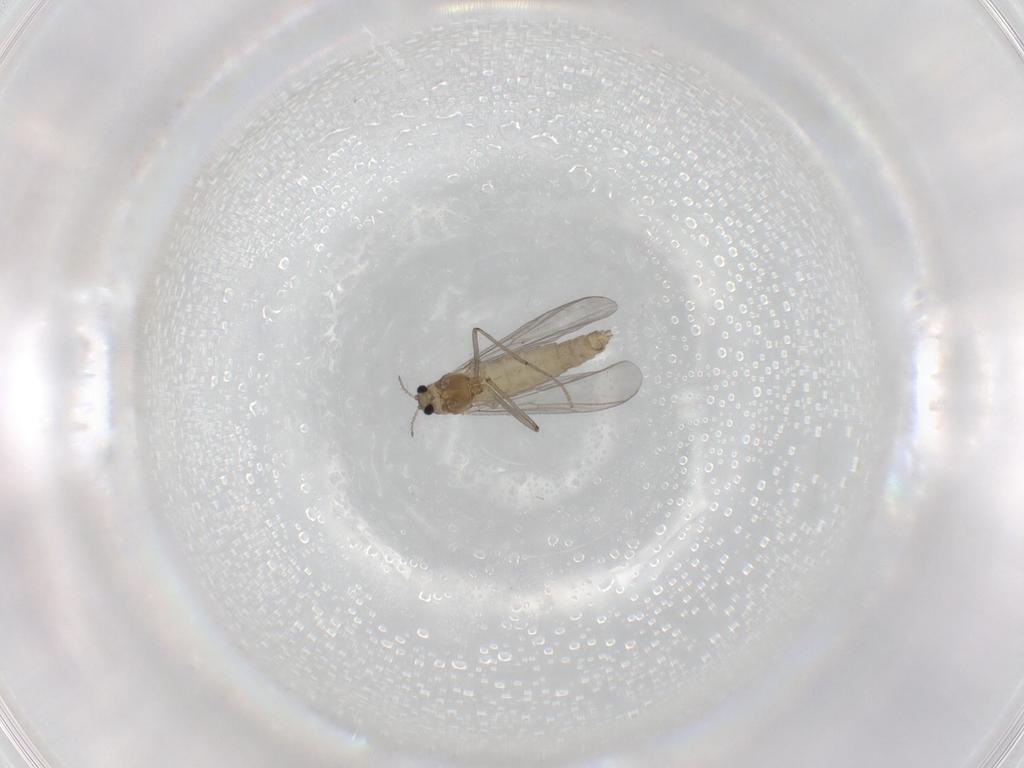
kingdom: Animalia
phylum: Arthropoda
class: Insecta
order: Diptera
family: Chironomidae
